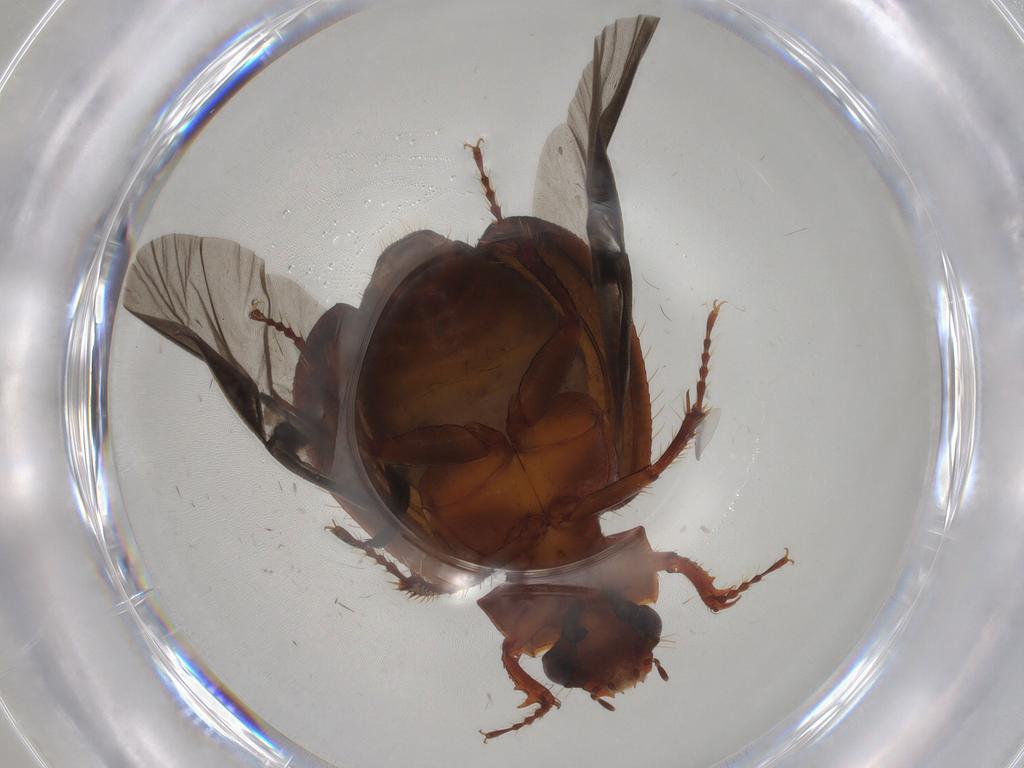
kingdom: Animalia
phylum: Arthropoda
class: Insecta
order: Coleoptera
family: Hybosoridae
